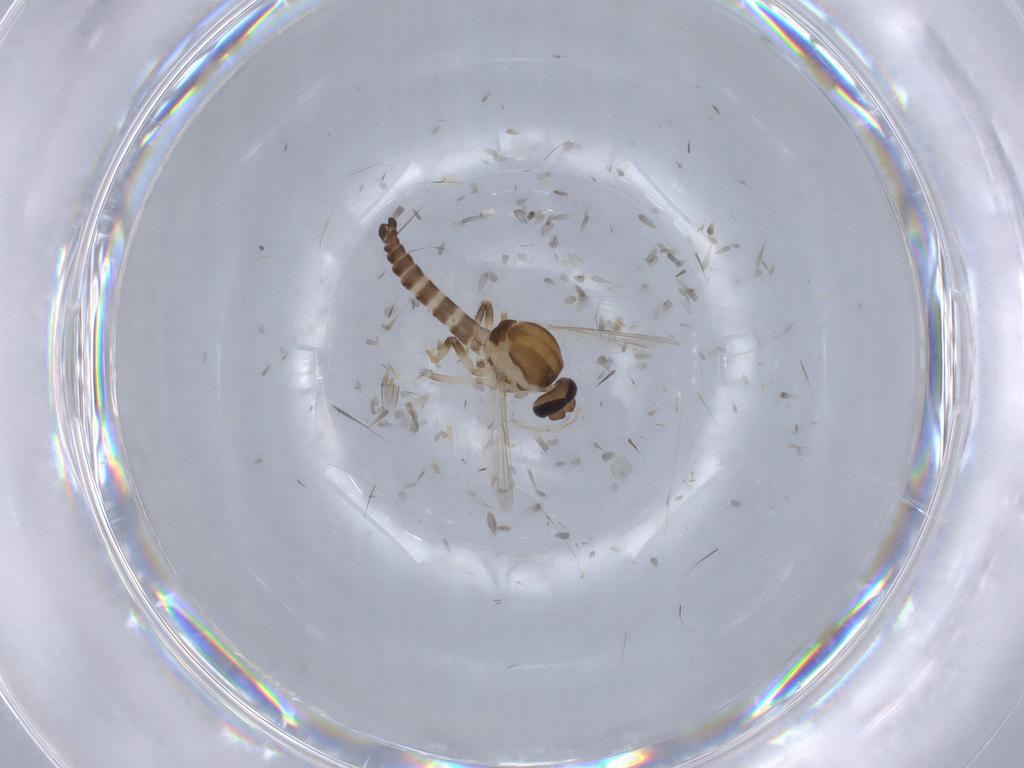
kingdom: Animalia
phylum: Arthropoda
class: Insecta
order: Diptera
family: Ceratopogonidae
